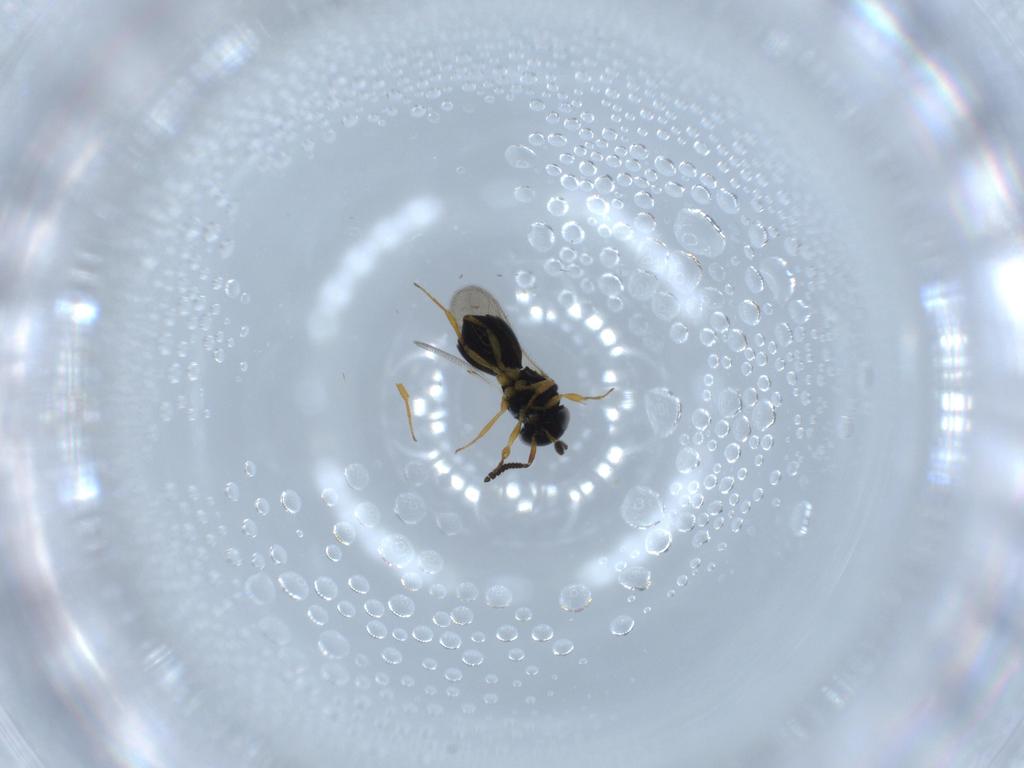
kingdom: Animalia
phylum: Arthropoda
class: Insecta
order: Hymenoptera
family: Scelionidae
